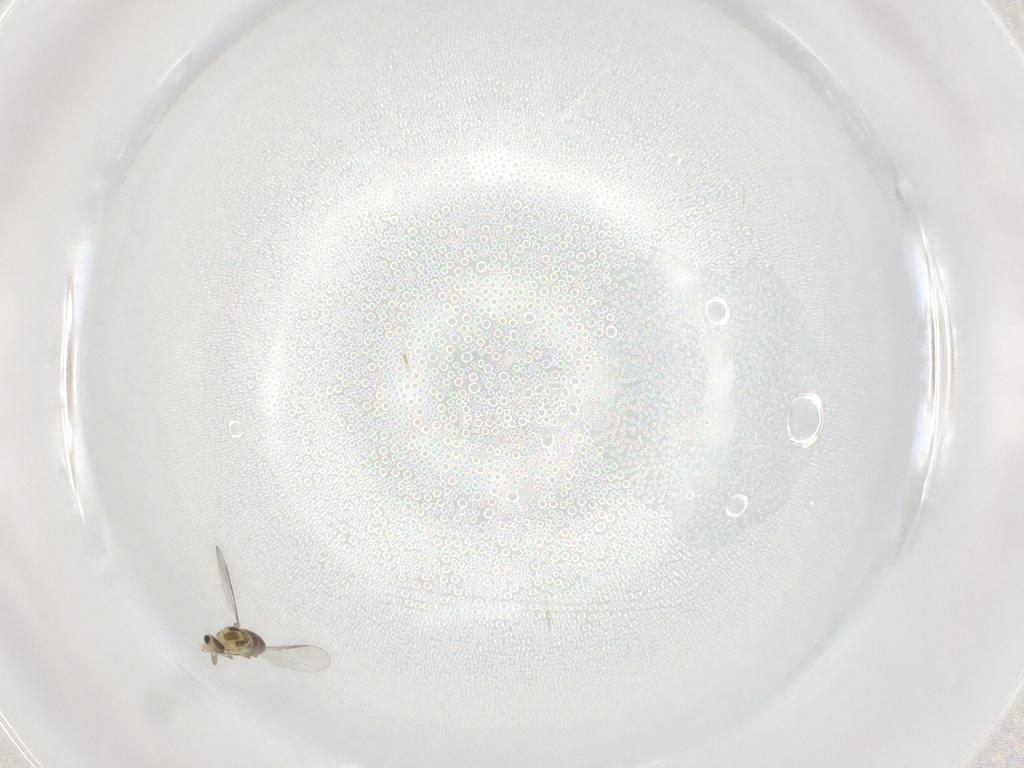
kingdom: Animalia
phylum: Arthropoda
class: Insecta
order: Diptera
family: Chironomidae
